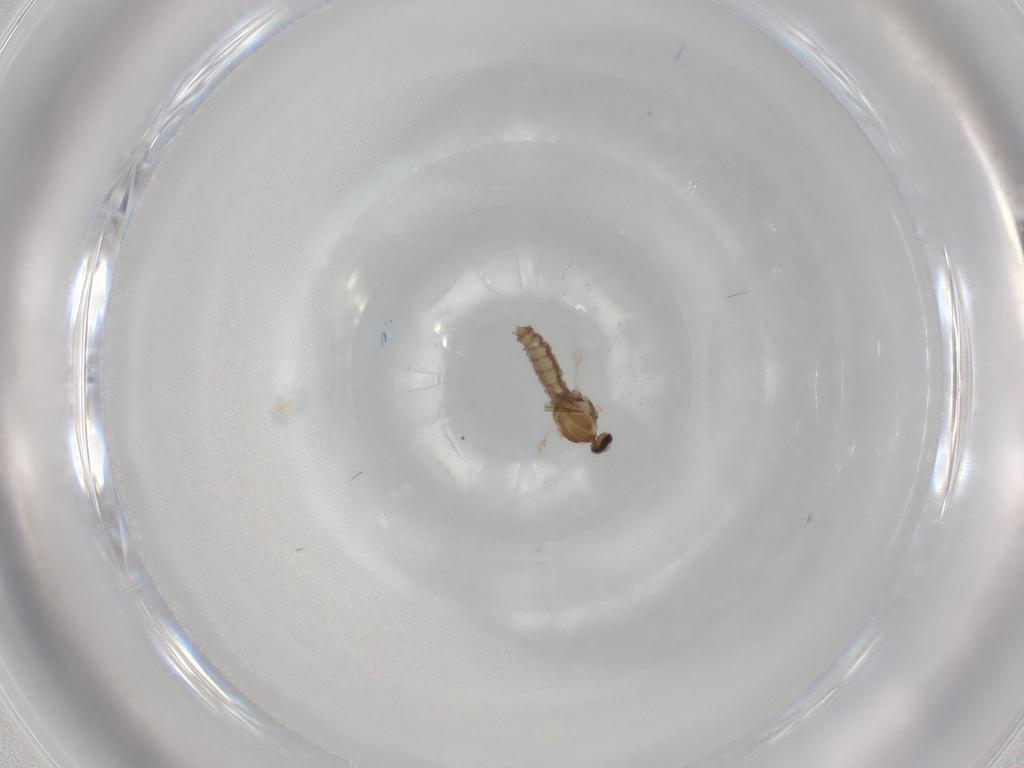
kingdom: Animalia
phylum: Arthropoda
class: Insecta
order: Diptera
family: Cecidomyiidae
